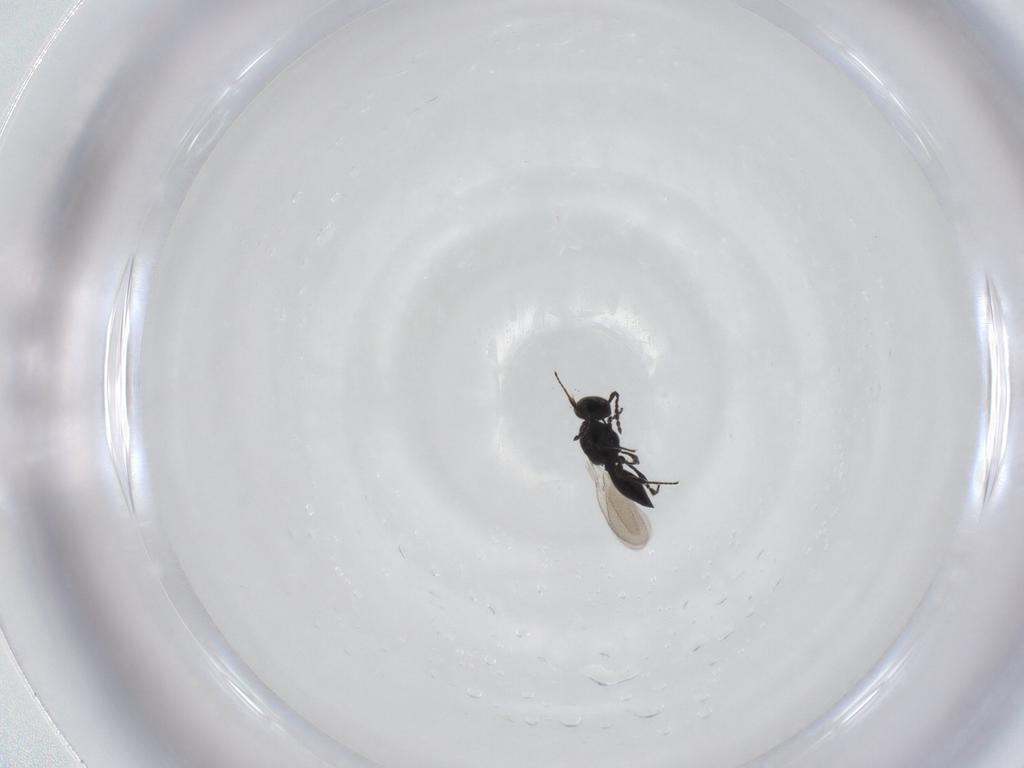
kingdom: Animalia
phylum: Arthropoda
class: Insecta
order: Hymenoptera
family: Platygastridae
